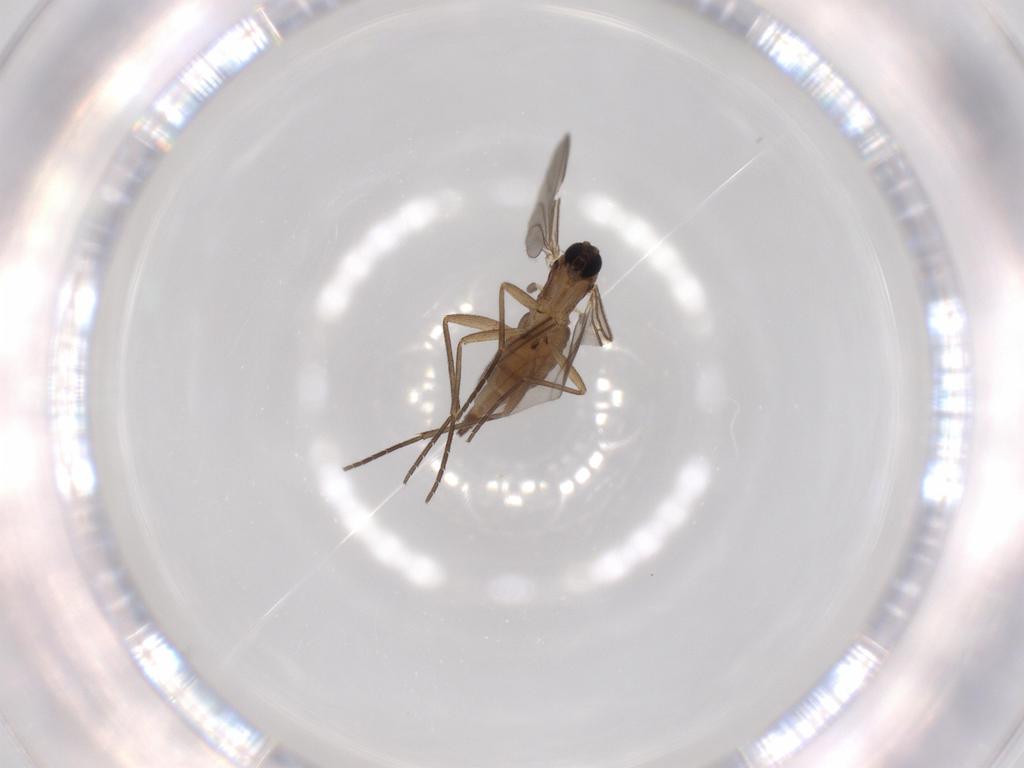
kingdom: Animalia
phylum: Arthropoda
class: Insecta
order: Diptera
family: Sciaridae
